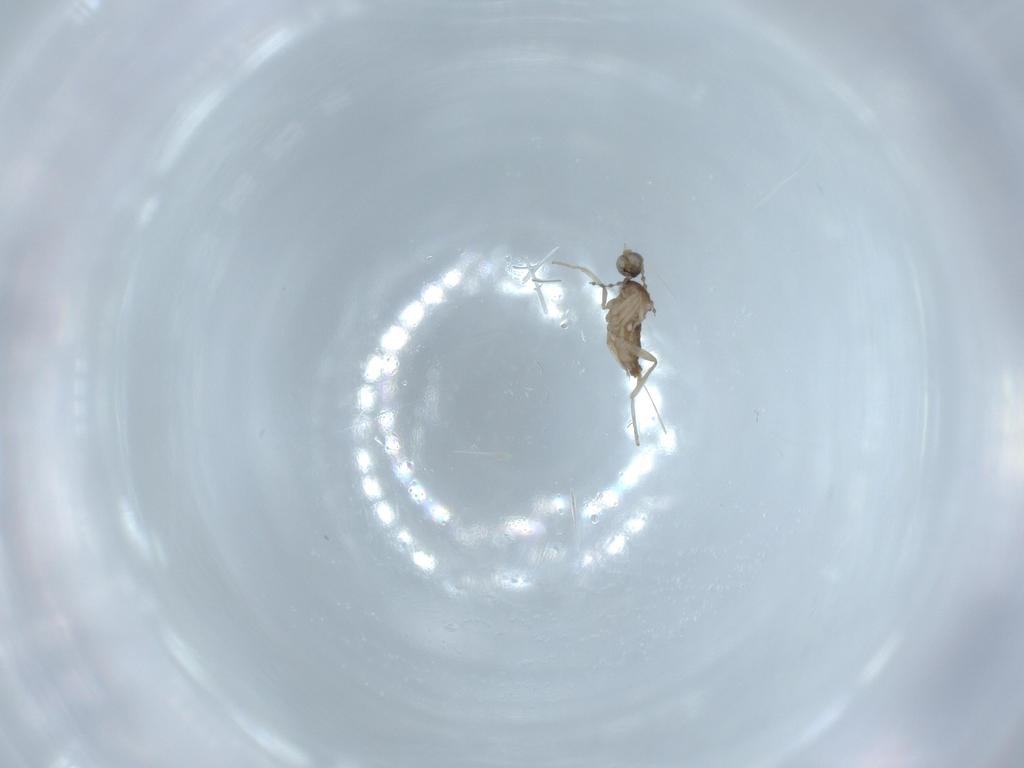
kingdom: Animalia
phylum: Arthropoda
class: Insecta
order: Diptera
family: Cecidomyiidae
